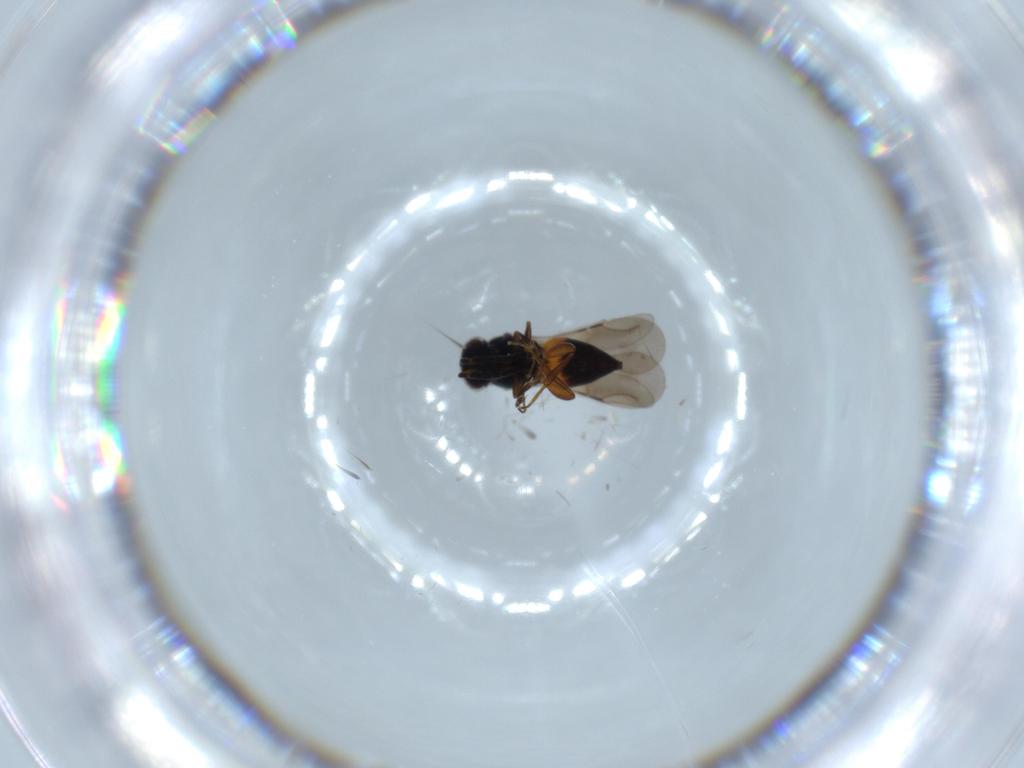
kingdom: Animalia
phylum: Arthropoda
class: Insecta
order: Hymenoptera
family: Ceraphronidae
